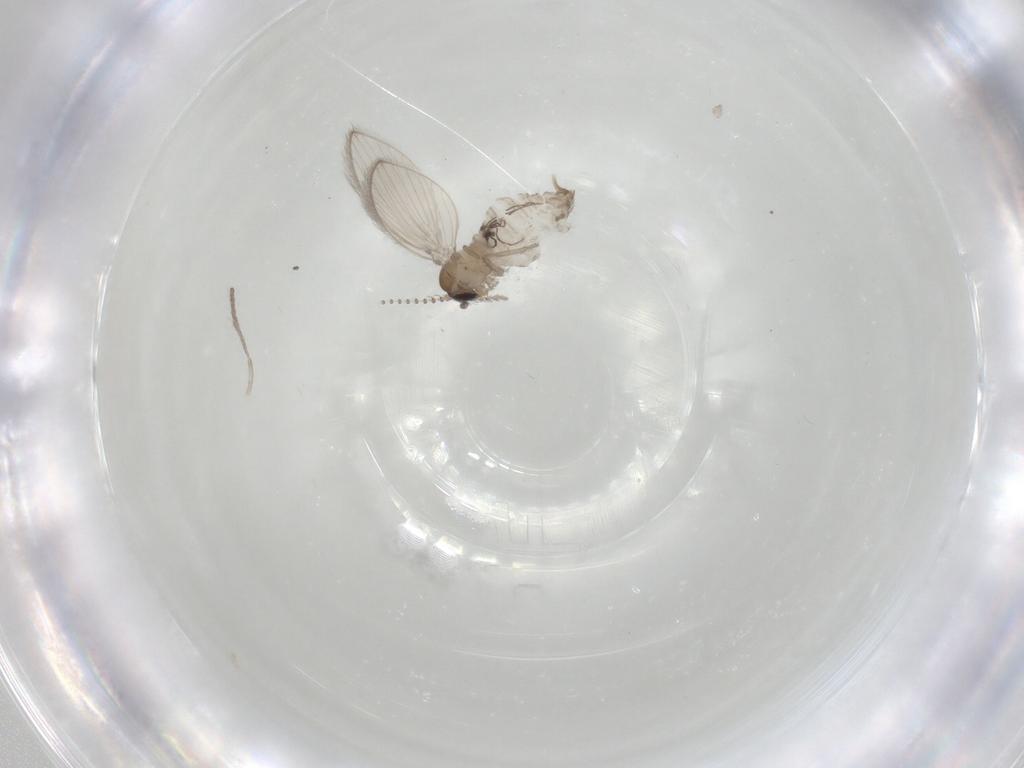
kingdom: Animalia
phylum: Arthropoda
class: Insecta
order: Diptera
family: Psychodidae
